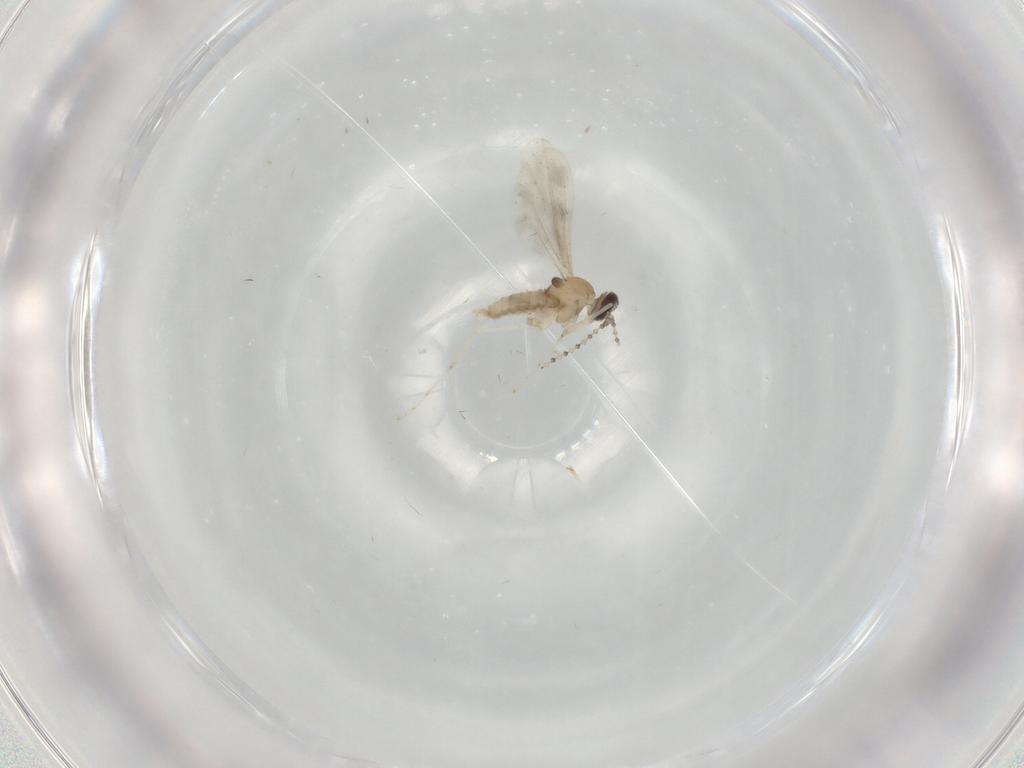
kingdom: Animalia
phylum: Arthropoda
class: Insecta
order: Diptera
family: Cecidomyiidae
